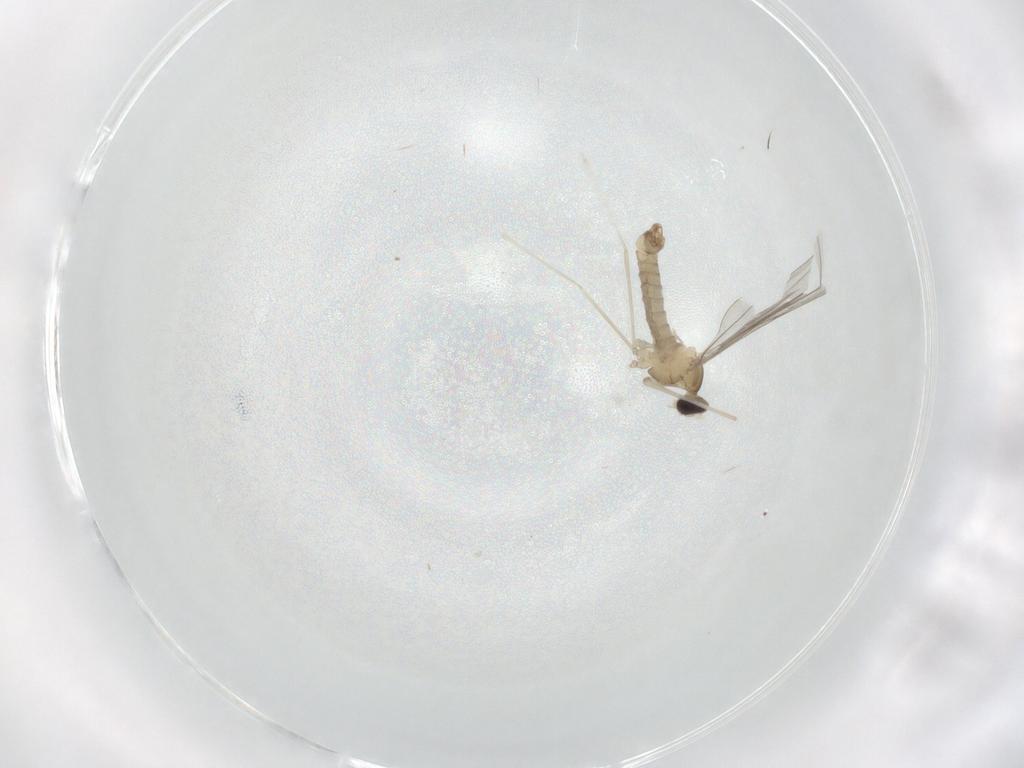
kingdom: Animalia
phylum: Arthropoda
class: Insecta
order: Diptera
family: Cecidomyiidae
